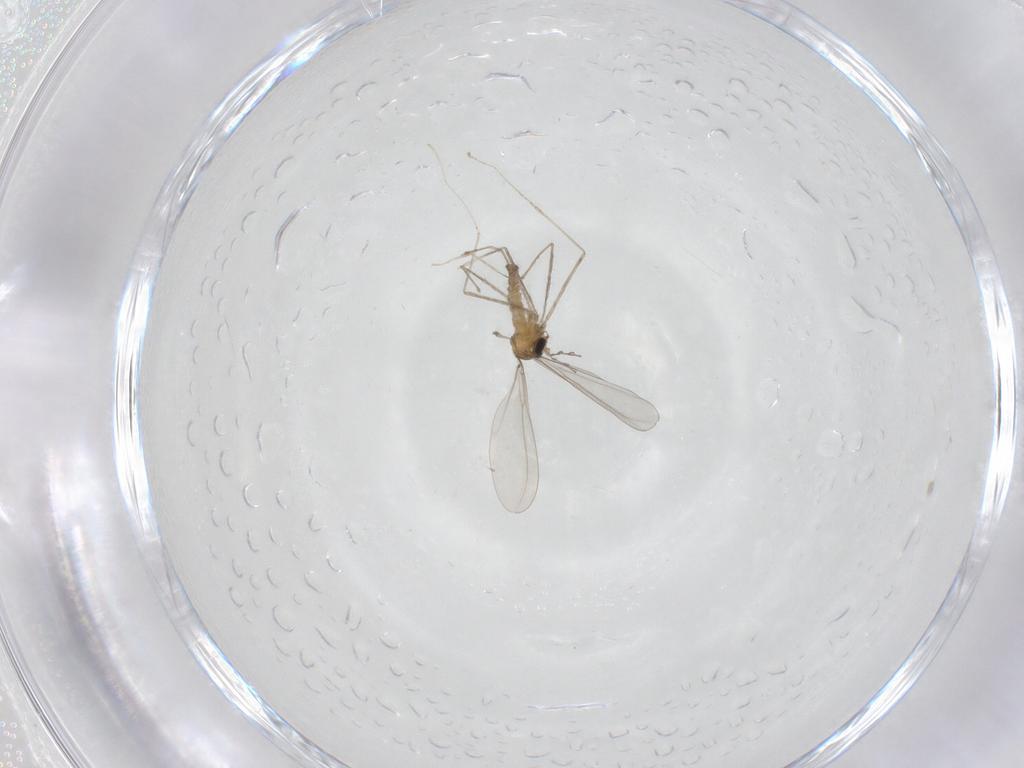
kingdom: Animalia
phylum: Arthropoda
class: Insecta
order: Diptera
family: Cecidomyiidae
